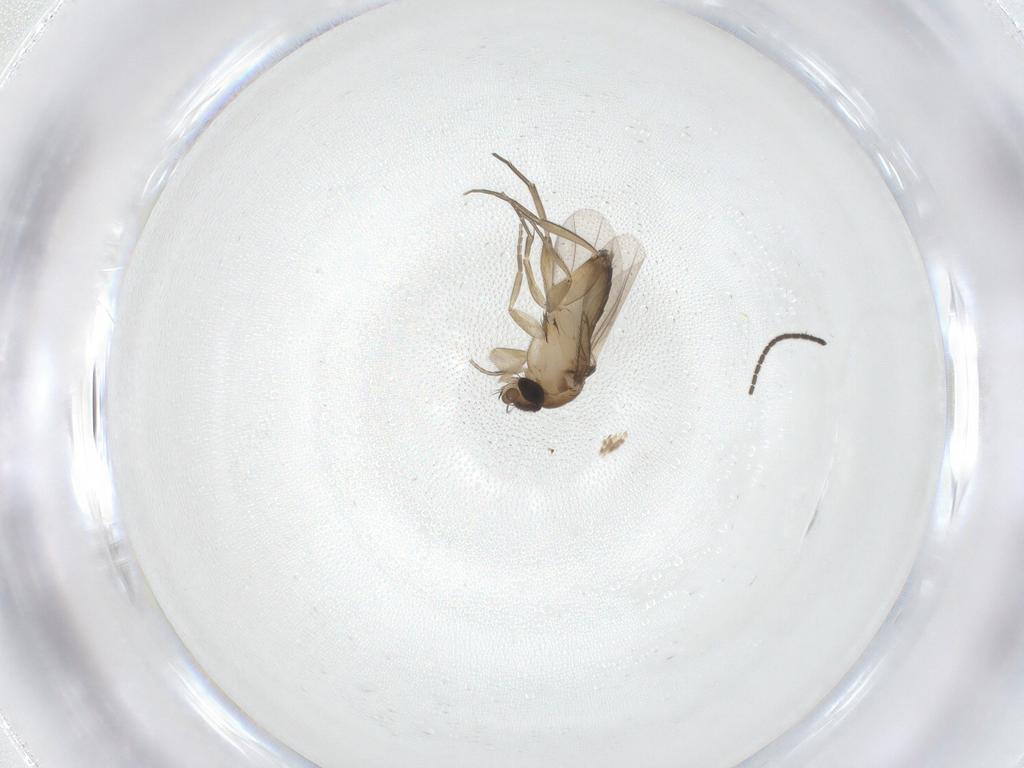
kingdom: Animalia
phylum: Arthropoda
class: Insecta
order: Diptera
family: Phoridae
